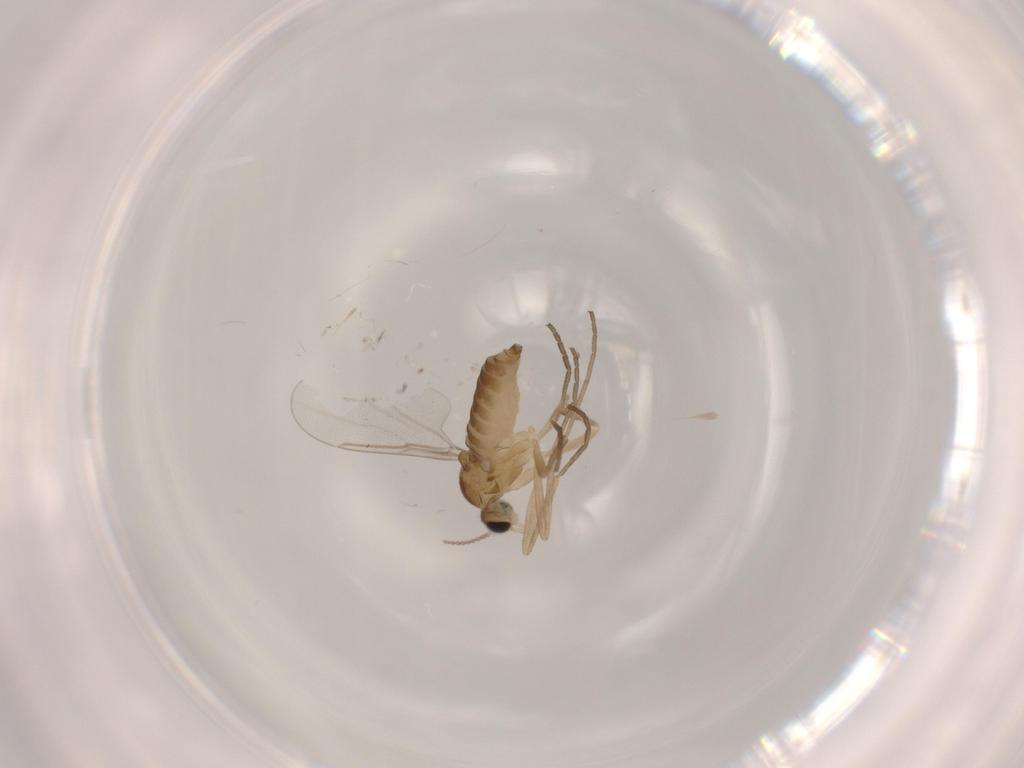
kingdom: Animalia
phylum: Arthropoda
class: Insecta
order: Diptera
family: Cecidomyiidae
